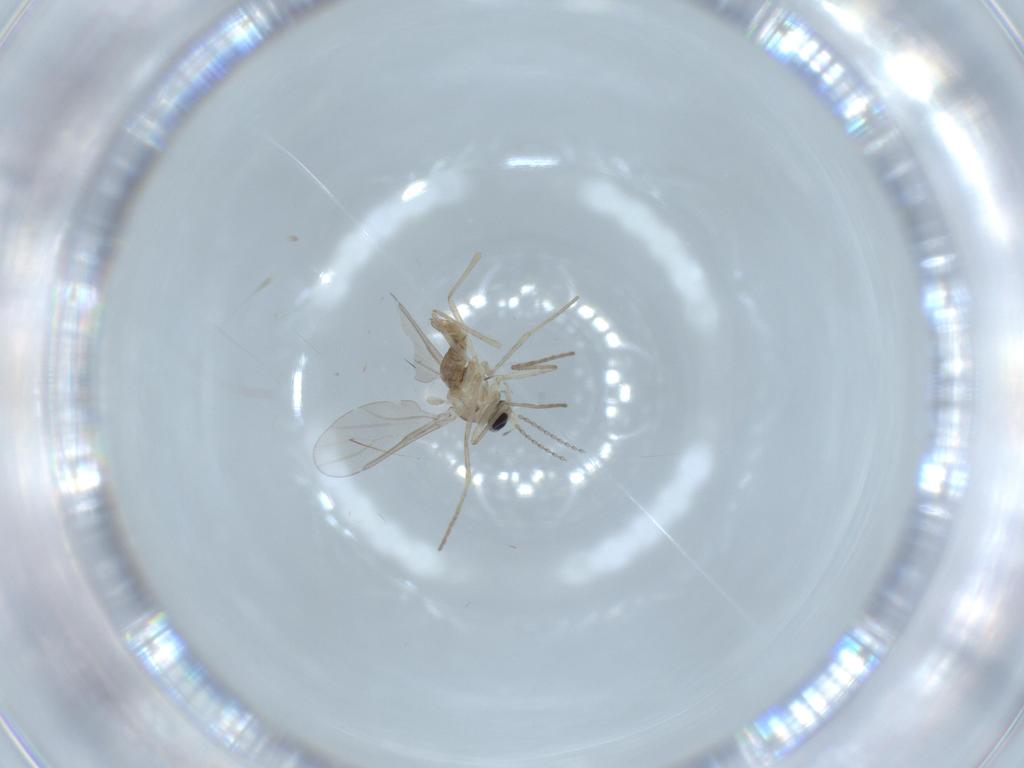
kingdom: Animalia
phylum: Arthropoda
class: Insecta
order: Diptera
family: Cecidomyiidae
